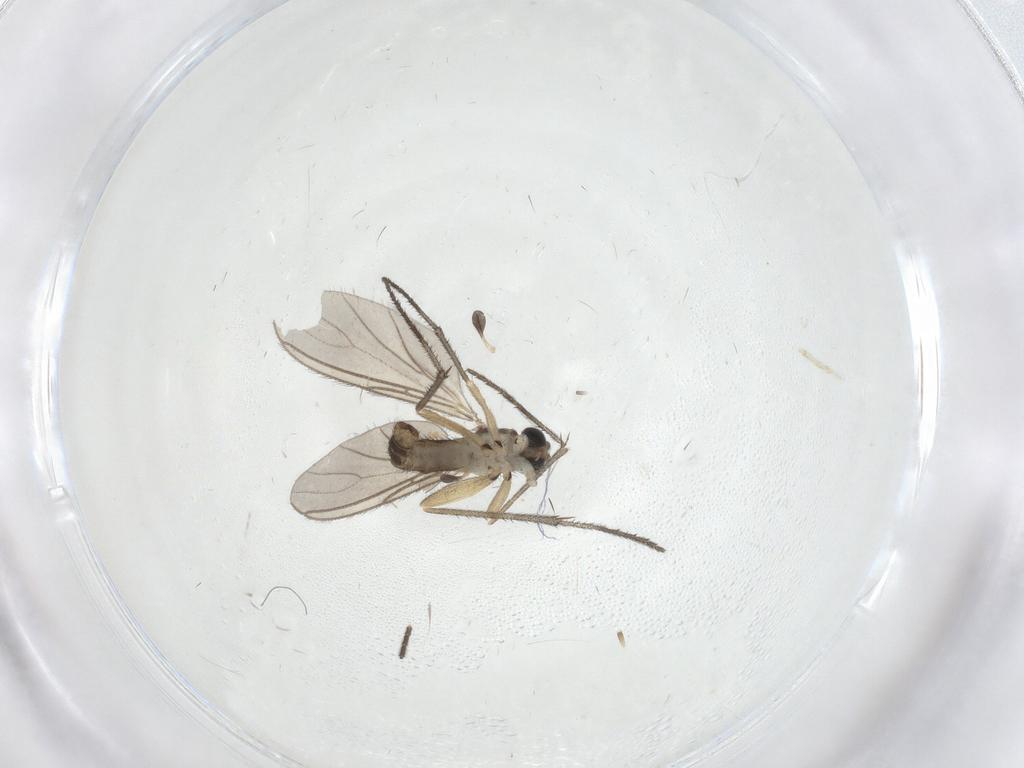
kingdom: Animalia
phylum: Arthropoda
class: Insecta
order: Diptera
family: Sciaridae
